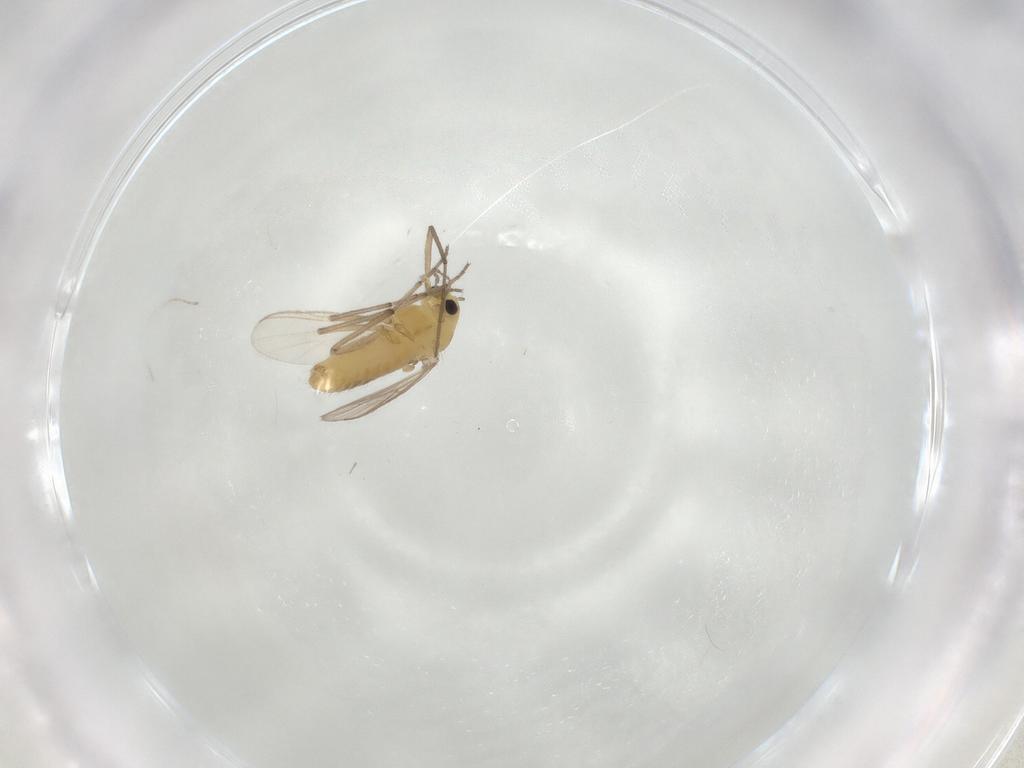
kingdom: Animalia
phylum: Arthropoda
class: Insecta
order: Diptera
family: Chironomidae
